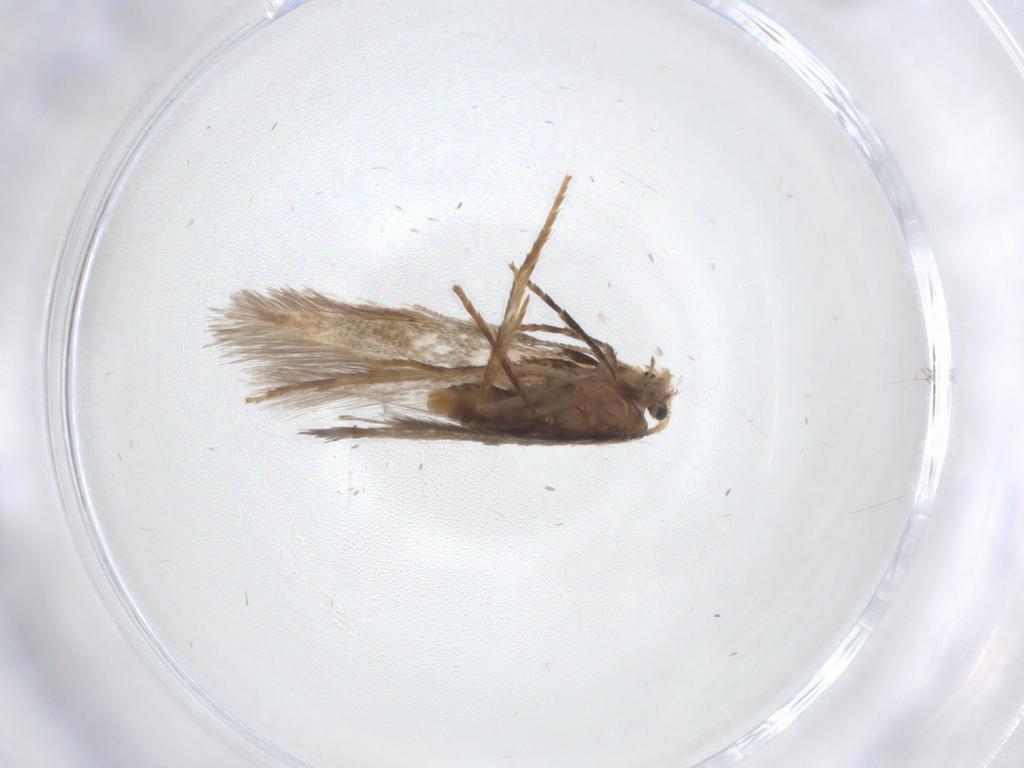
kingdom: Animalia
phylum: Arthropoda
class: Insecta
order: Lepidoptera
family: Nepticulidae
